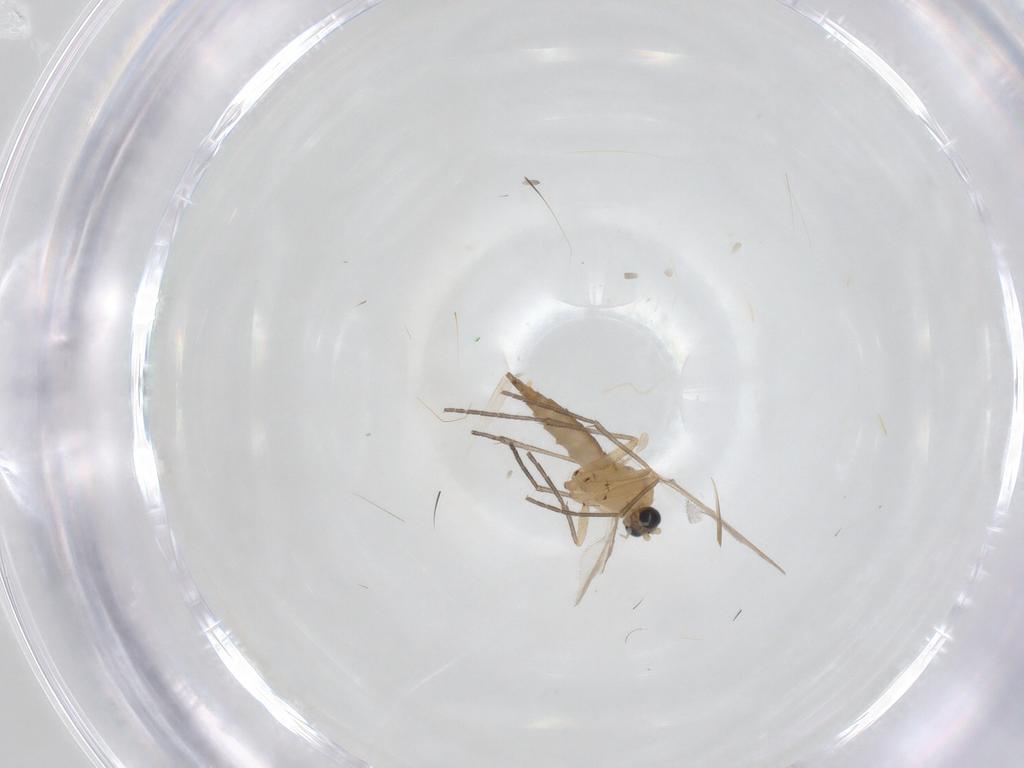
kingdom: Animalia
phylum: Arthropoda
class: Insecta
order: Diptera
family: Sciaridae
